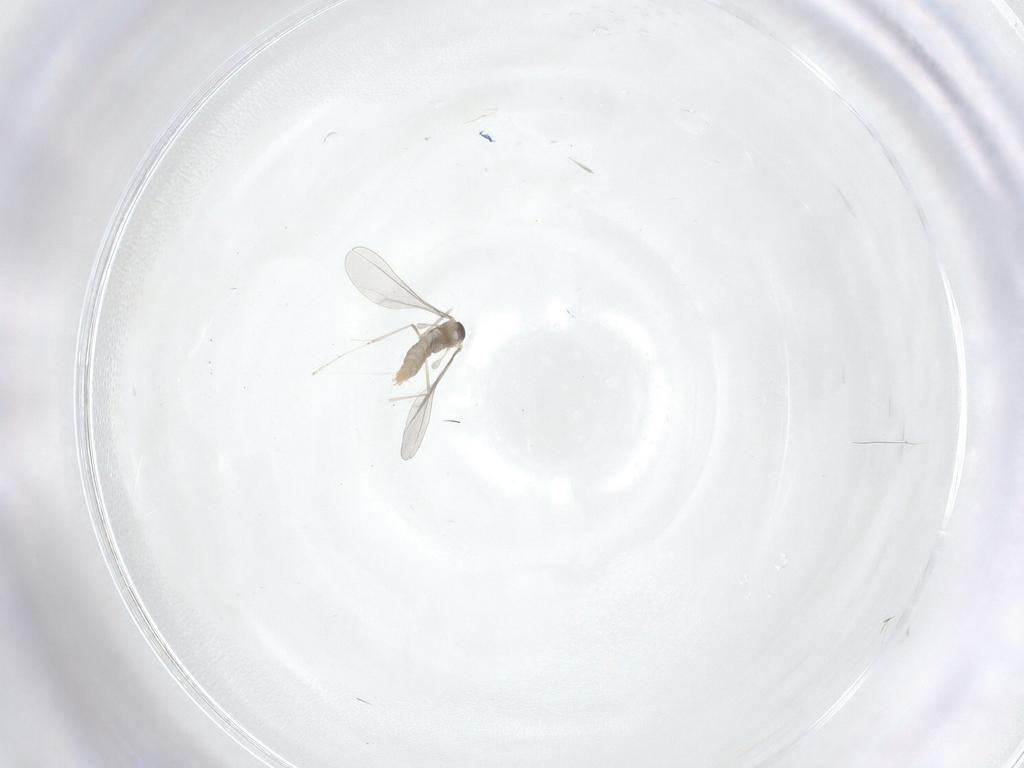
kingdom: Animalia
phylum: Arthropoda
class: Insecta
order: Diptera
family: Cecidomyiidae
